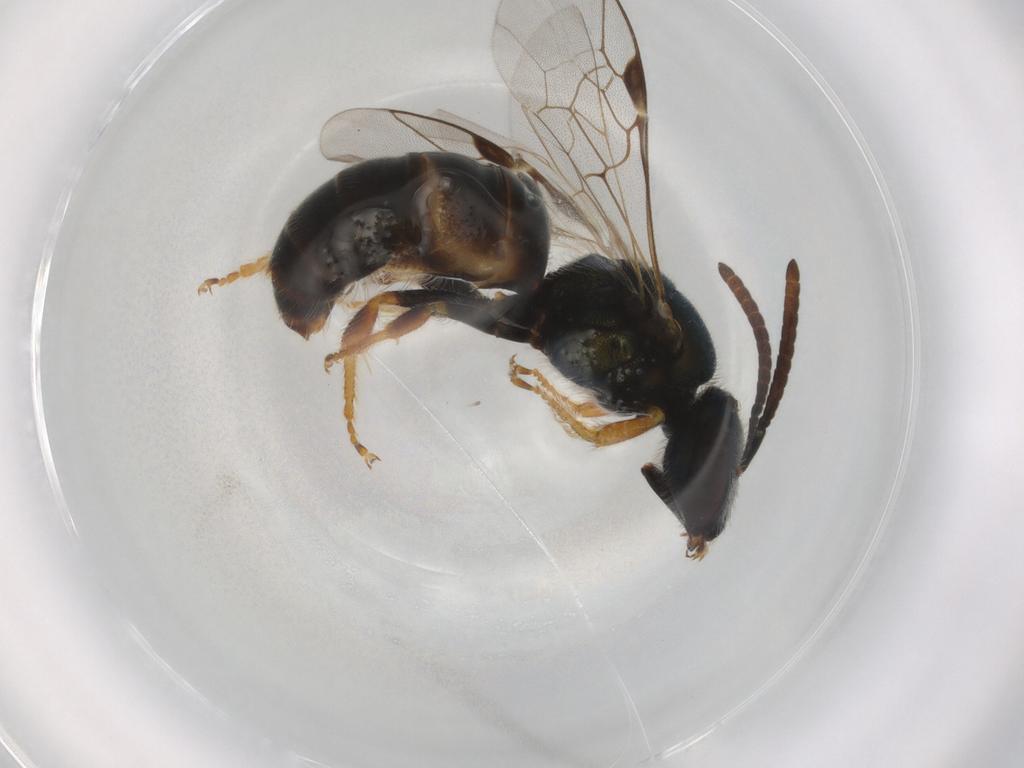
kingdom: Animalia
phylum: Arthropoda
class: Insecta
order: Hymenoptera
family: Halictidae
